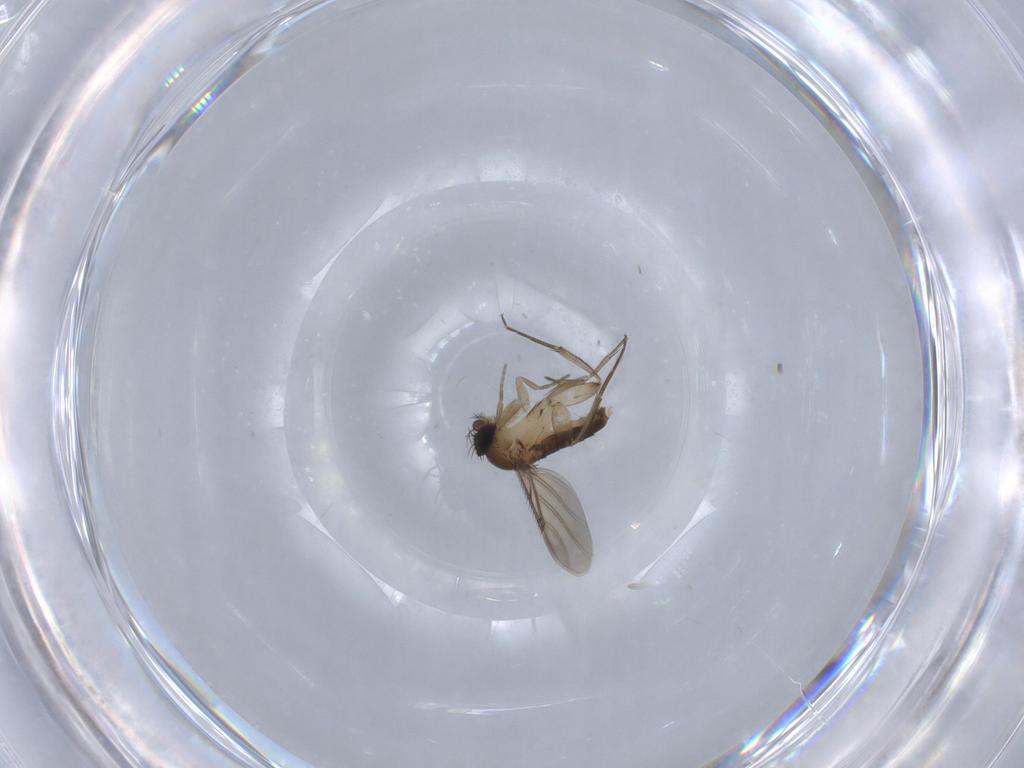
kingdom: Animalia
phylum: Arthropoda
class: Insecta
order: Diptera
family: Phoridae
